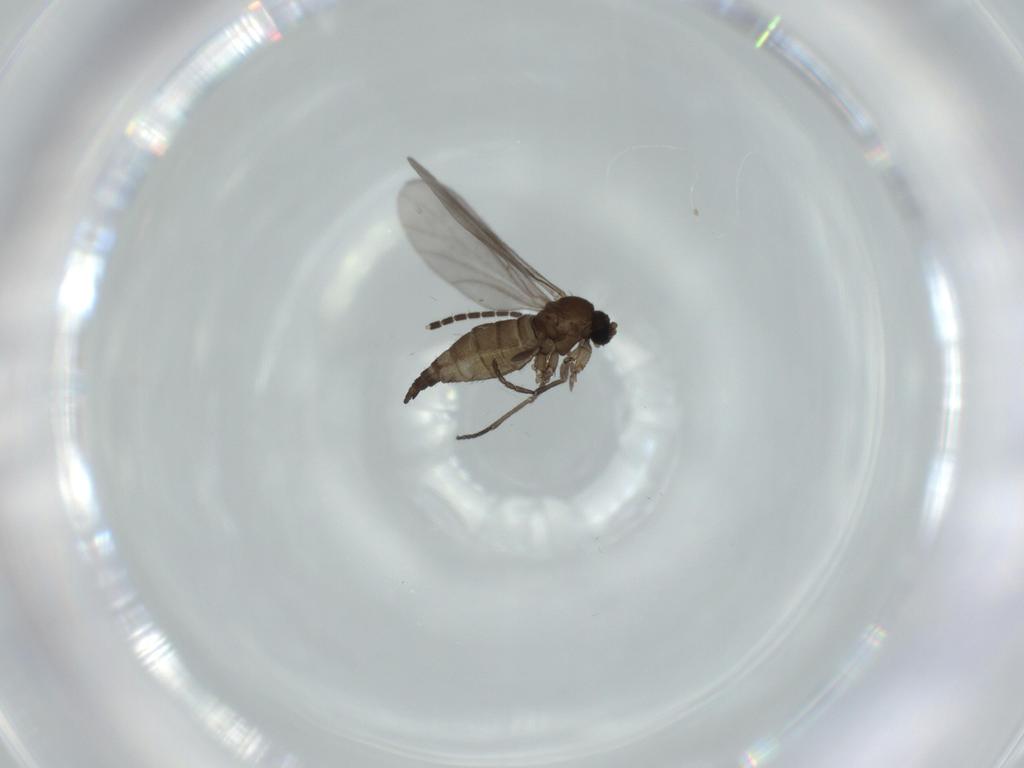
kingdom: Animalia
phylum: Arthropoda
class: Insecta
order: Diptera
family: Sciaridae
